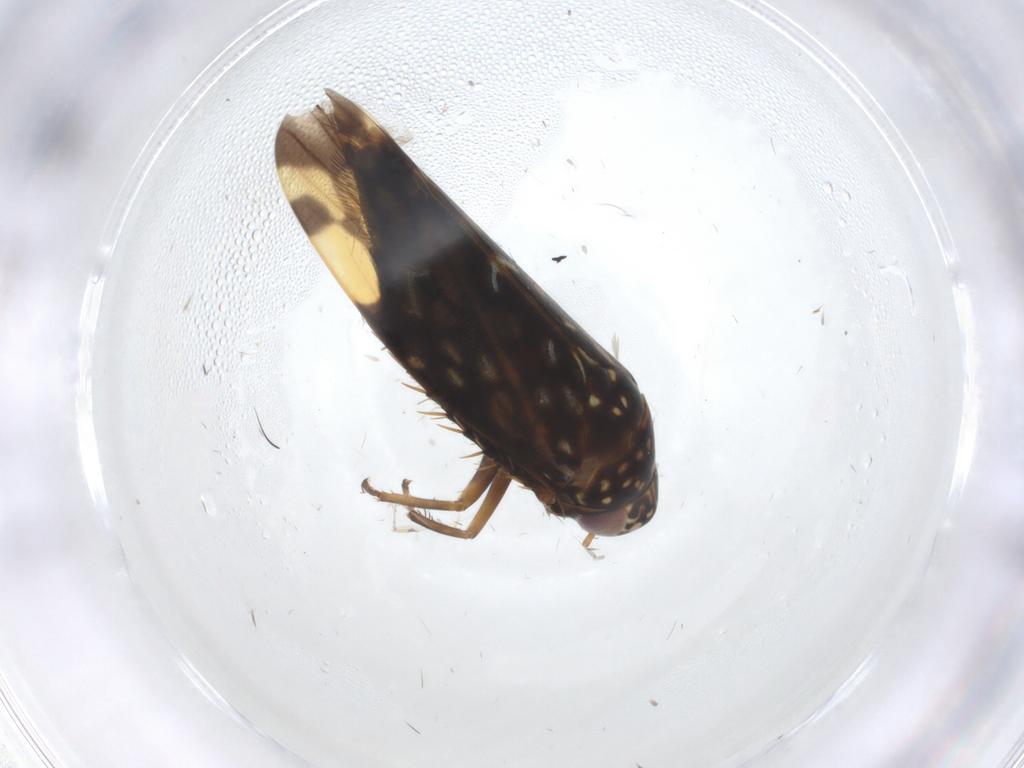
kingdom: Animalia
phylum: Arthropoda
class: Insecta
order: Hemiptera
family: Cicadellidae
